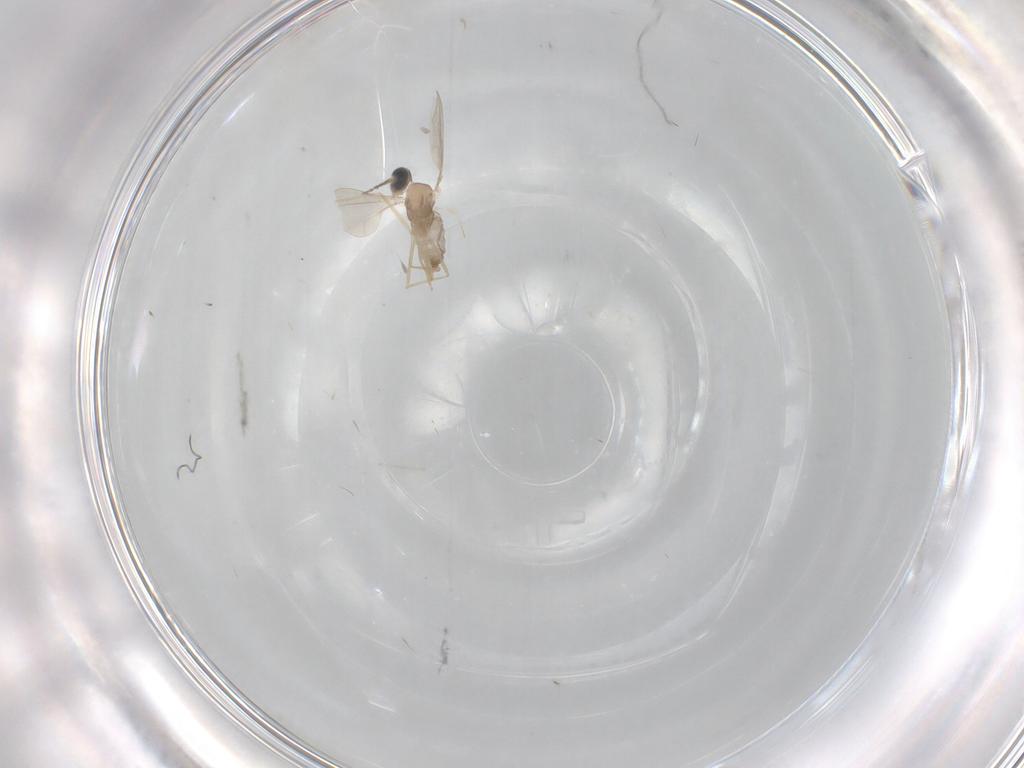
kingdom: Animalia
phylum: Arthropoda
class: Insecta
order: Diptera
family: Cecidomyiidae
